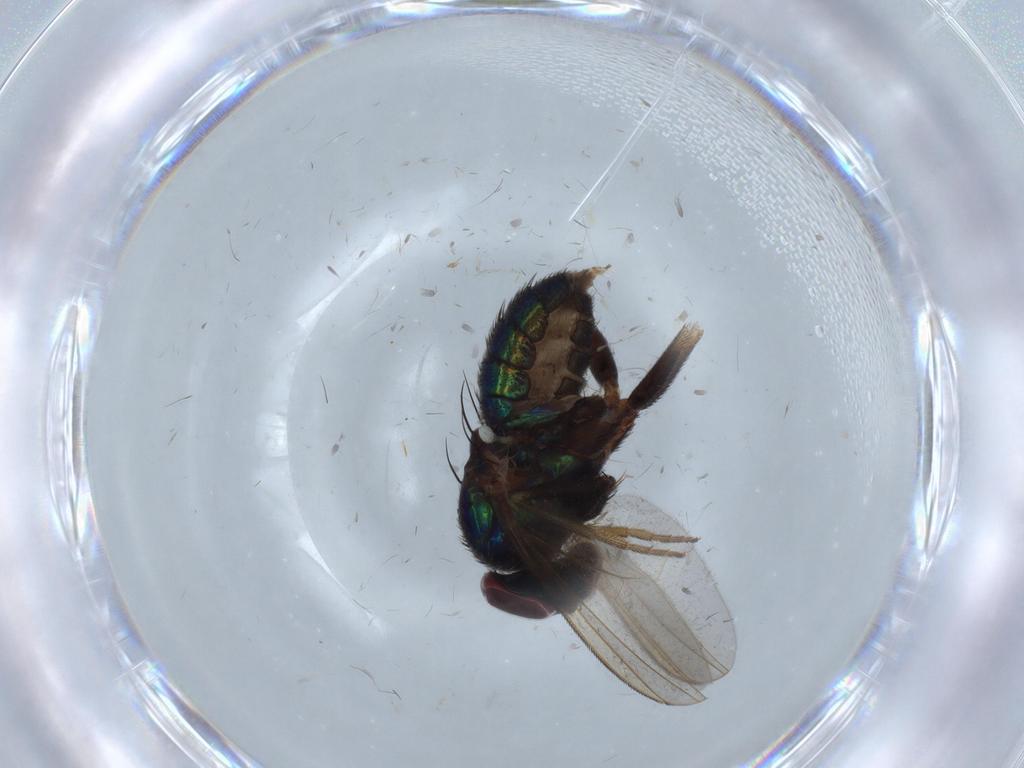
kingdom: Animalia
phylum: Arthropoda
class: Insecta
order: Diptera
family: Dolichopodidae
